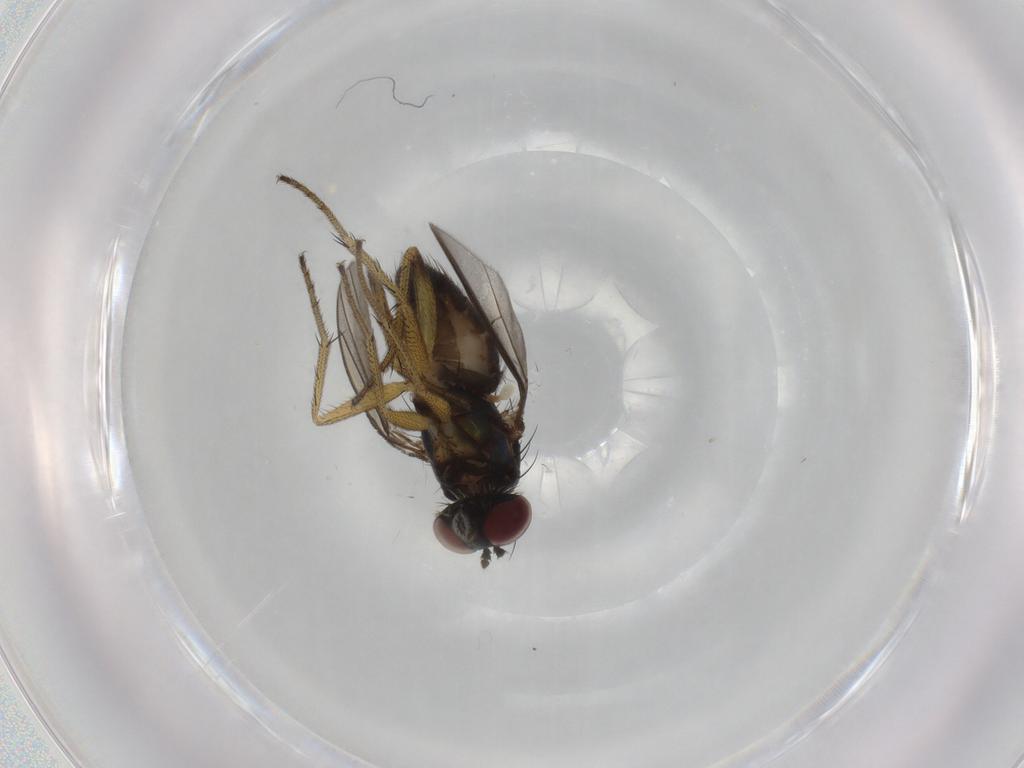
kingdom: Animalia
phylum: Arthropoda
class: Insecta
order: Diptera
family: Dolichopodidae
